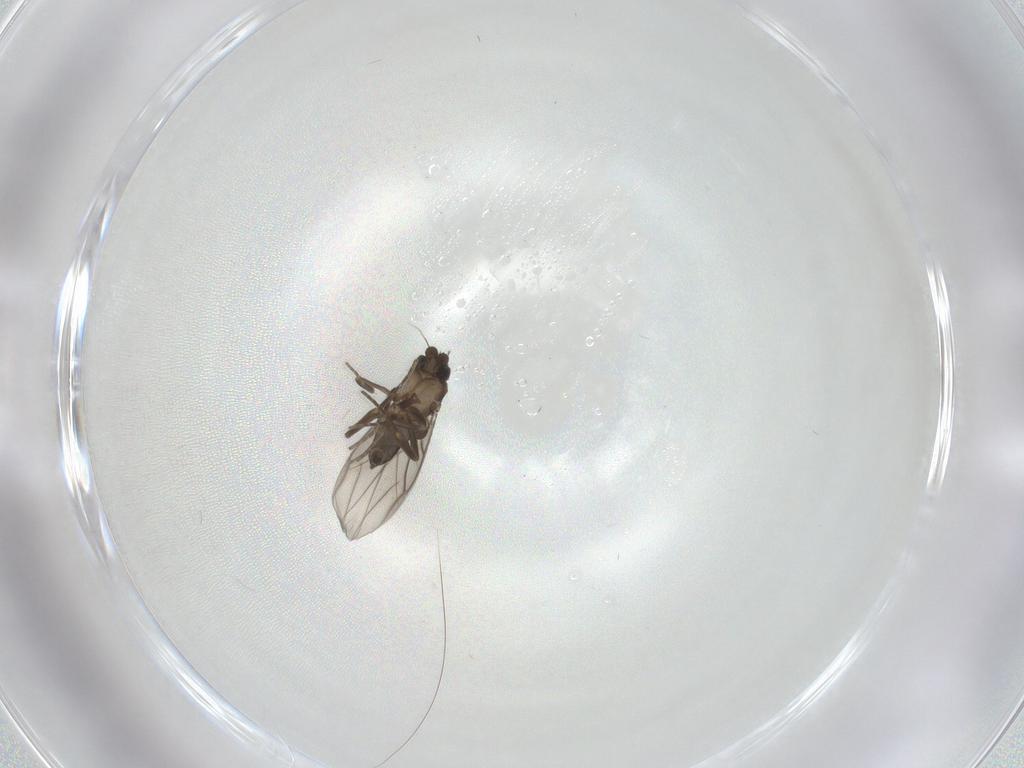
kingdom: Animalia
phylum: Arthropoda
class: Insecta
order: Diptera
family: Cecidomyiidae
